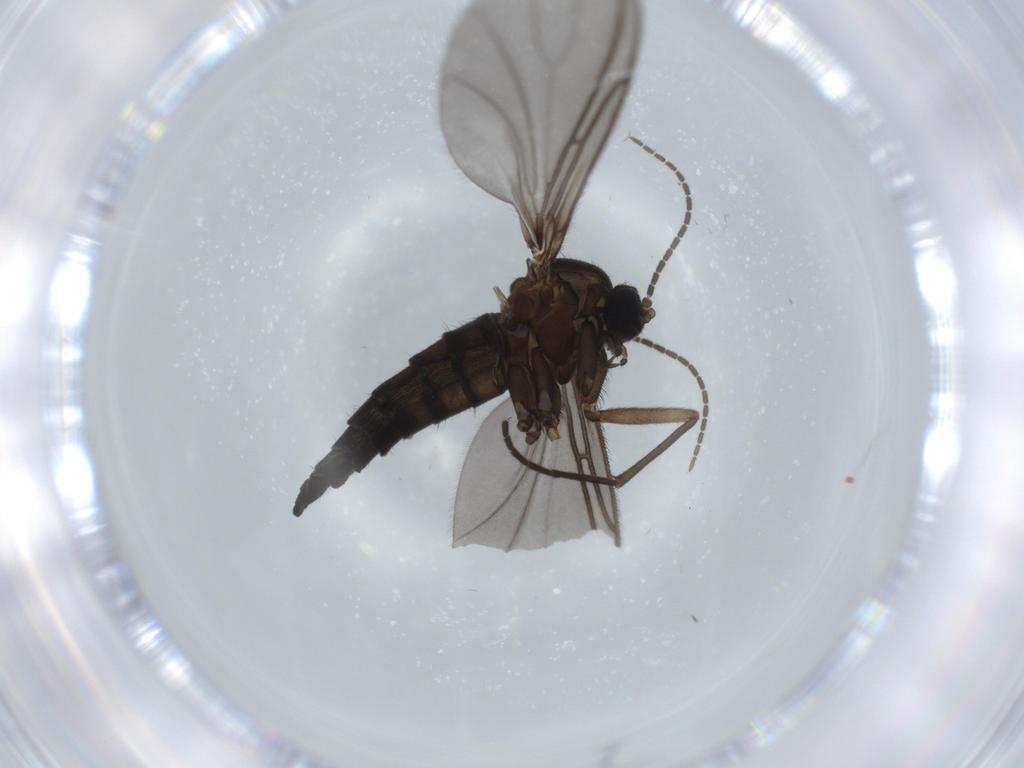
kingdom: Animalia
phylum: Arthropoda
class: Insecta
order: Diptera
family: Sciaridae
